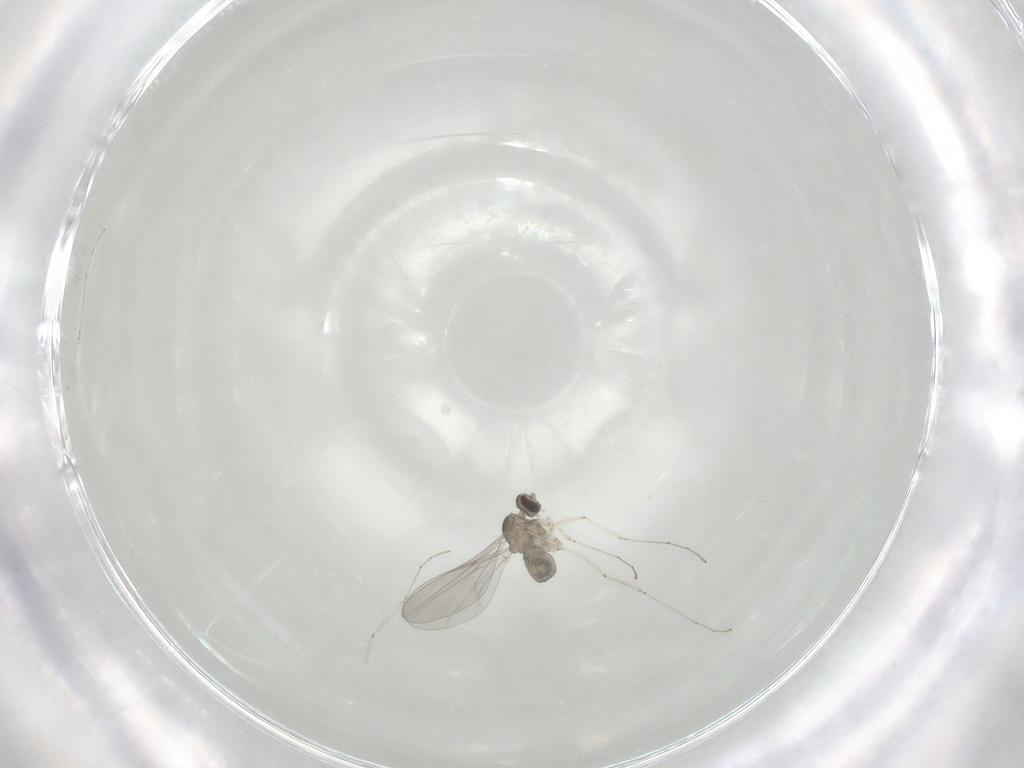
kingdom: Animalia
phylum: Arthropoda
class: Insecta
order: Diptera
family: Cecidomyiidae
